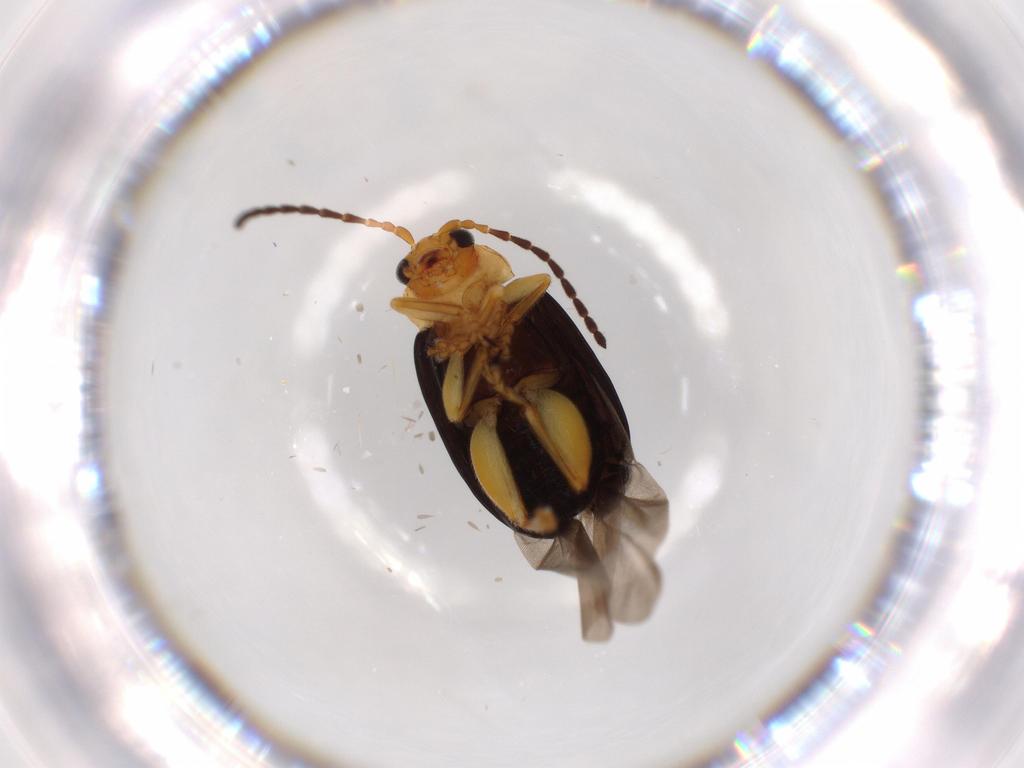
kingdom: Animalia
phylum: Arthropoda
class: Insecta
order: Coleoptera
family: Chrysomelidae
